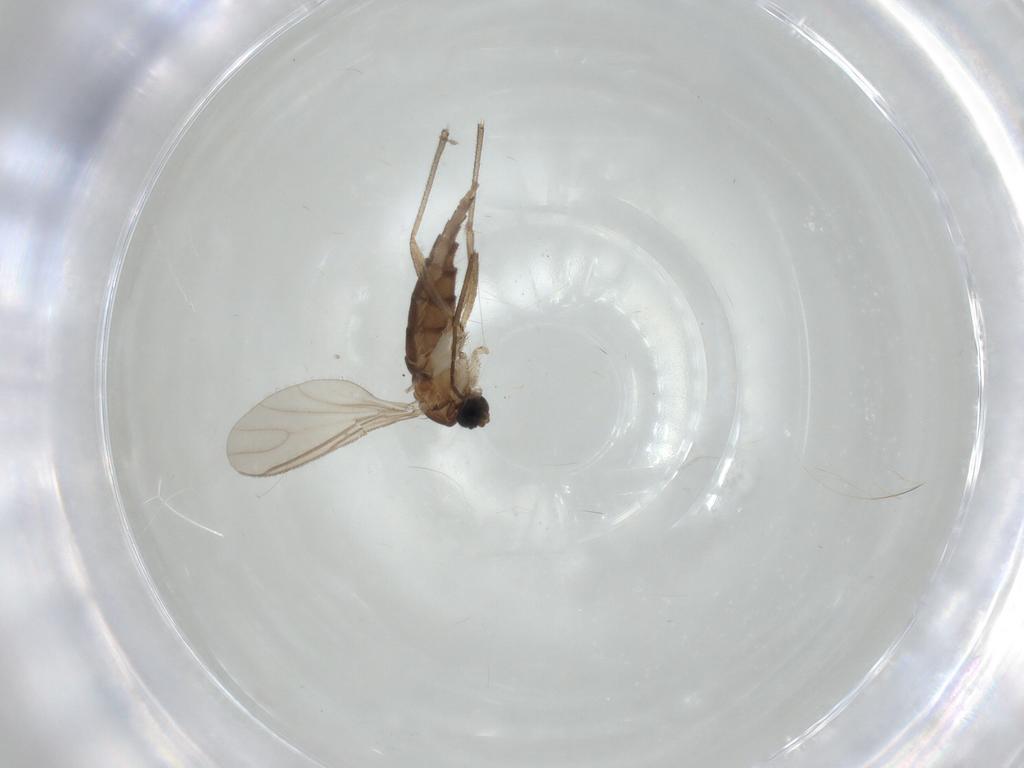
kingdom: Animalia
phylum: Arthropoda
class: Insecta
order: Diptera
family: Sciaridae
